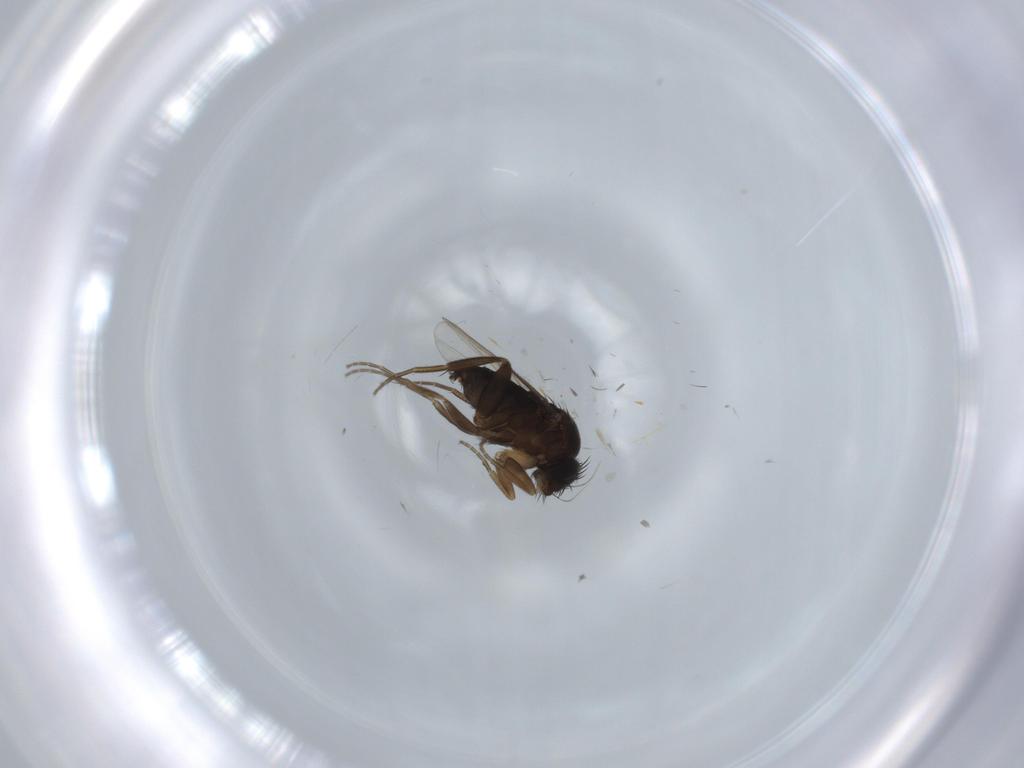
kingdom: Animalia
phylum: Arthropoda
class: Insecta
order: Diptera
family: Phoridae
